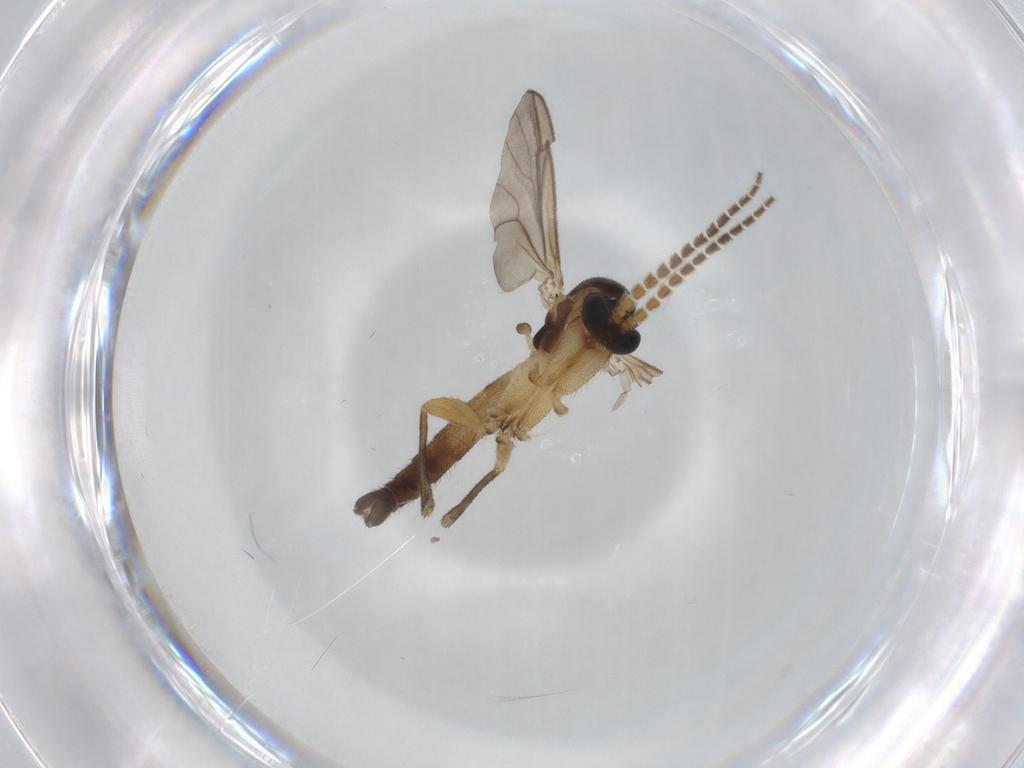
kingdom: Animalia
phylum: Arthropoda
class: Insecta
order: Diptera
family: Mycetophilidae
